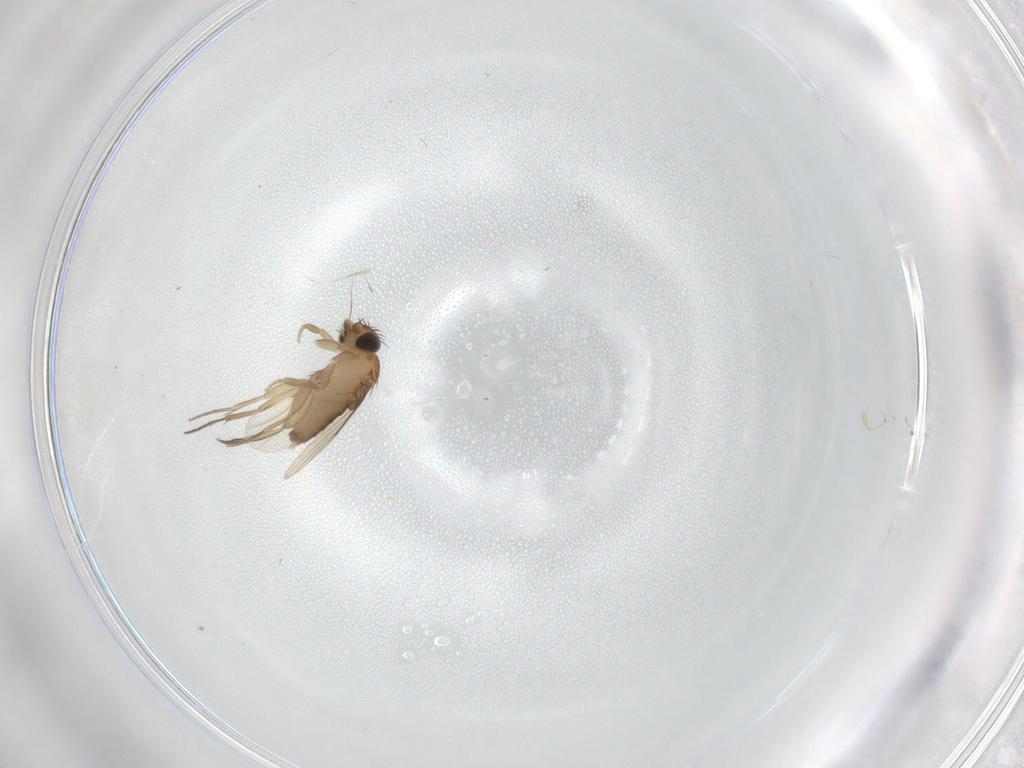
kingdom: Animalia
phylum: Arthropoda
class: Insecta
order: Diptera
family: Phoridae
